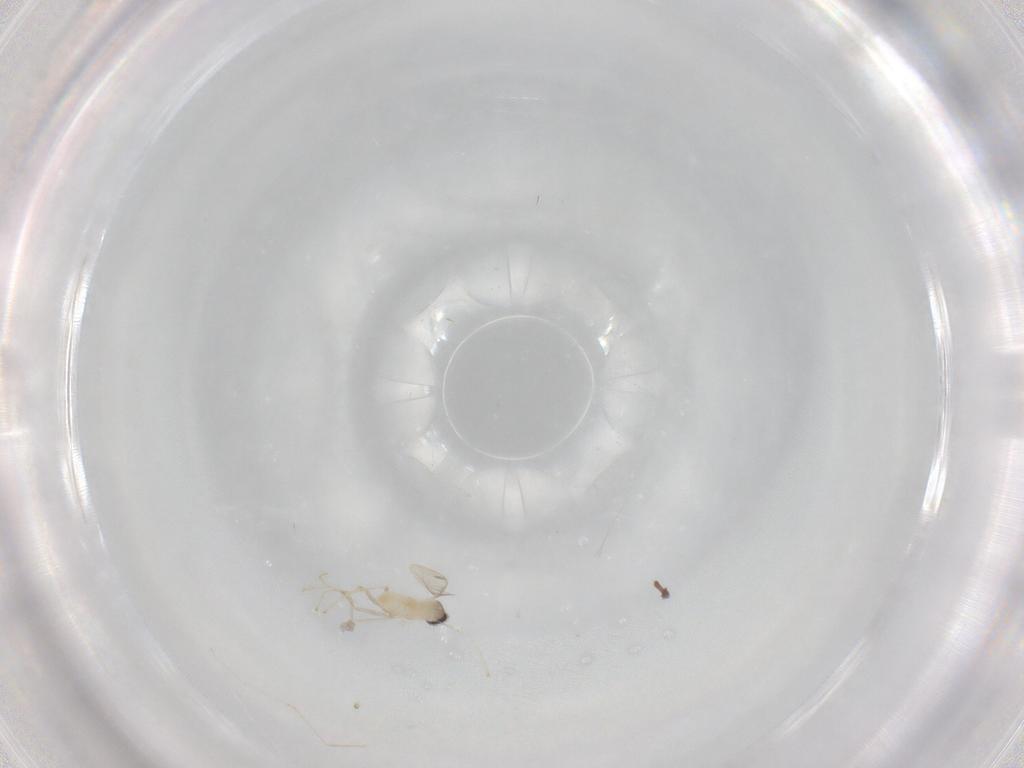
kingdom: Animalia
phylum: Arthropoda
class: Insecta
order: Diptera
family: Cecidomyiidae
